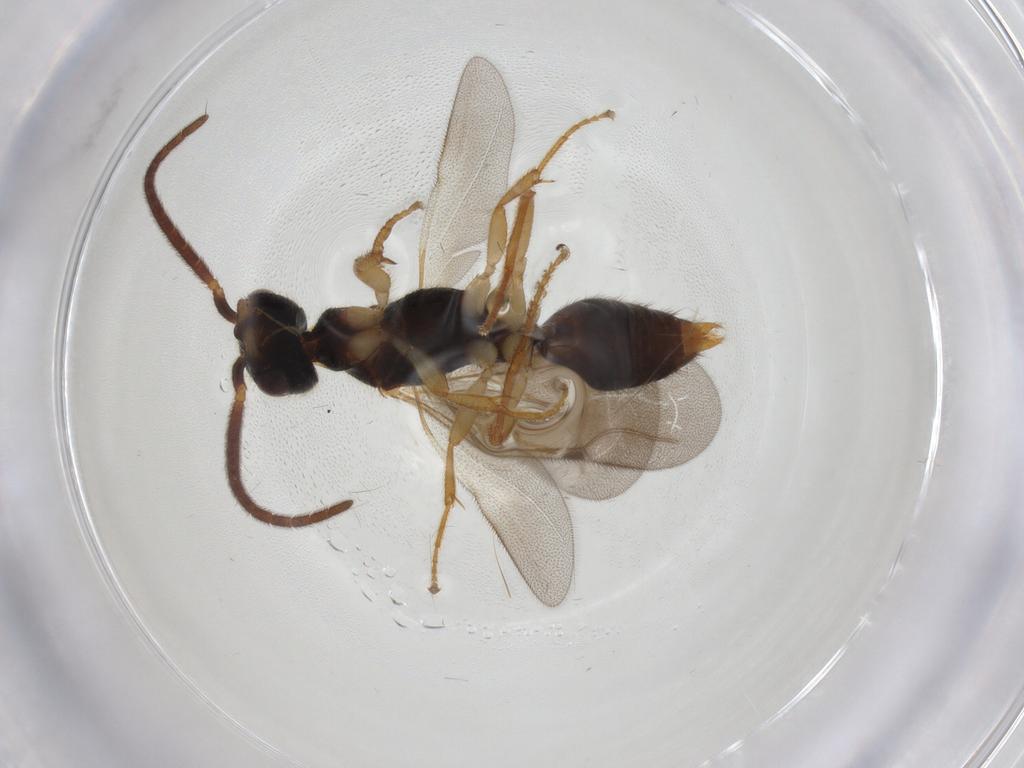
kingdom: Animalia
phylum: Arthropoda
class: Insecta
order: Hymenoptera
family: Bethylidae
